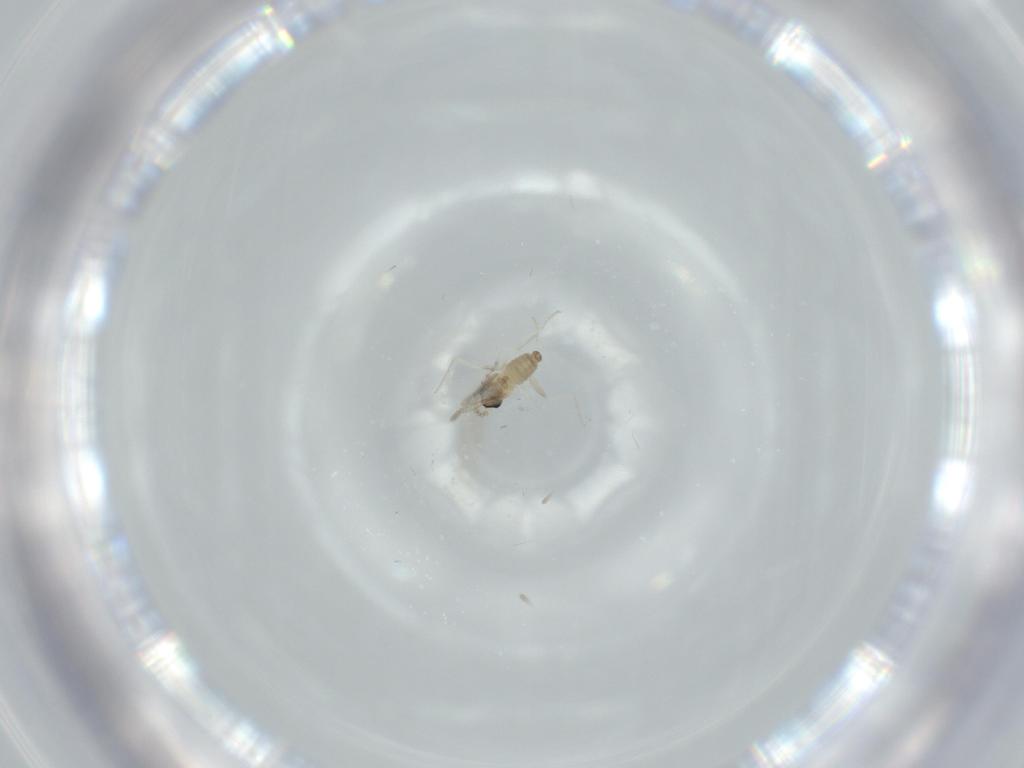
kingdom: Animalia
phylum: Arthropoda
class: Insecta
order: Diptera
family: Cecidomyiidae
